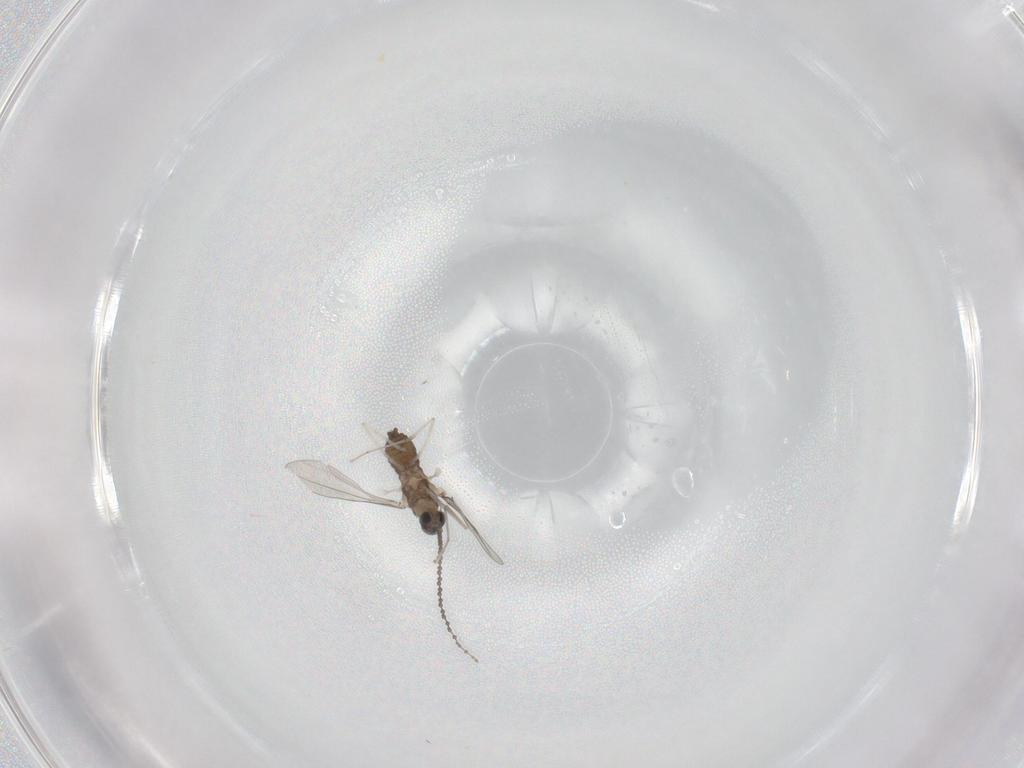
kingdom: Animalia
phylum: Arthropoda
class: Insecta
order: Diptera
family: Cecidomyiidae
